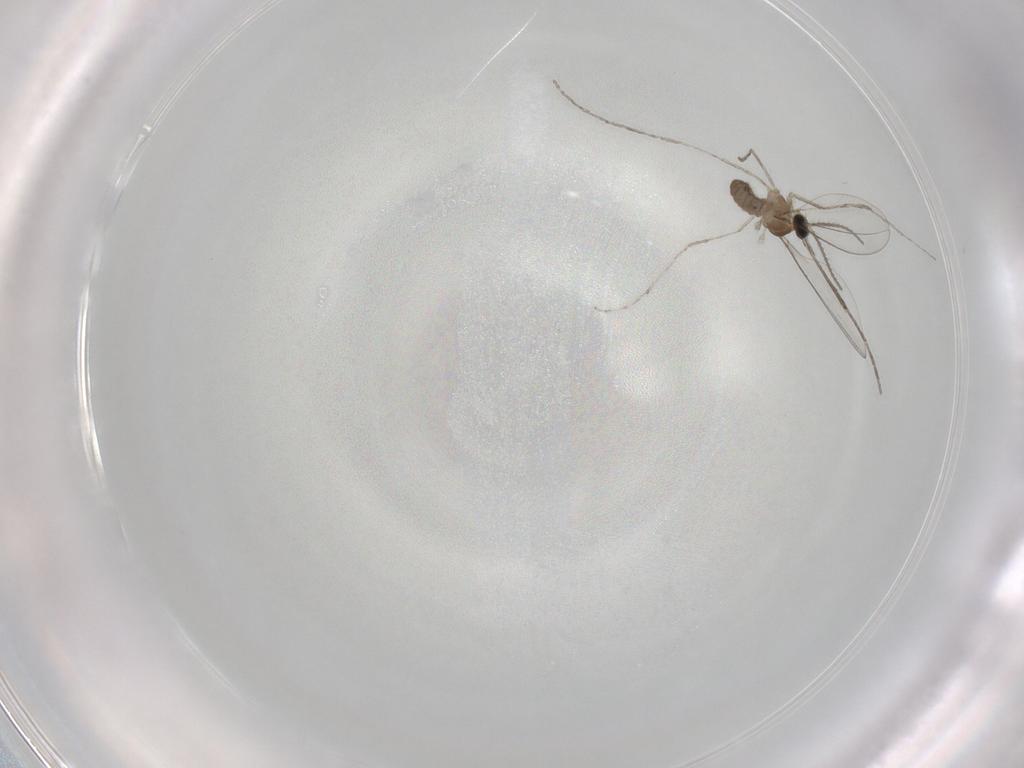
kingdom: Animalia
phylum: Arthropoda
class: Insecta
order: Diptera
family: Cecidomyiidae
